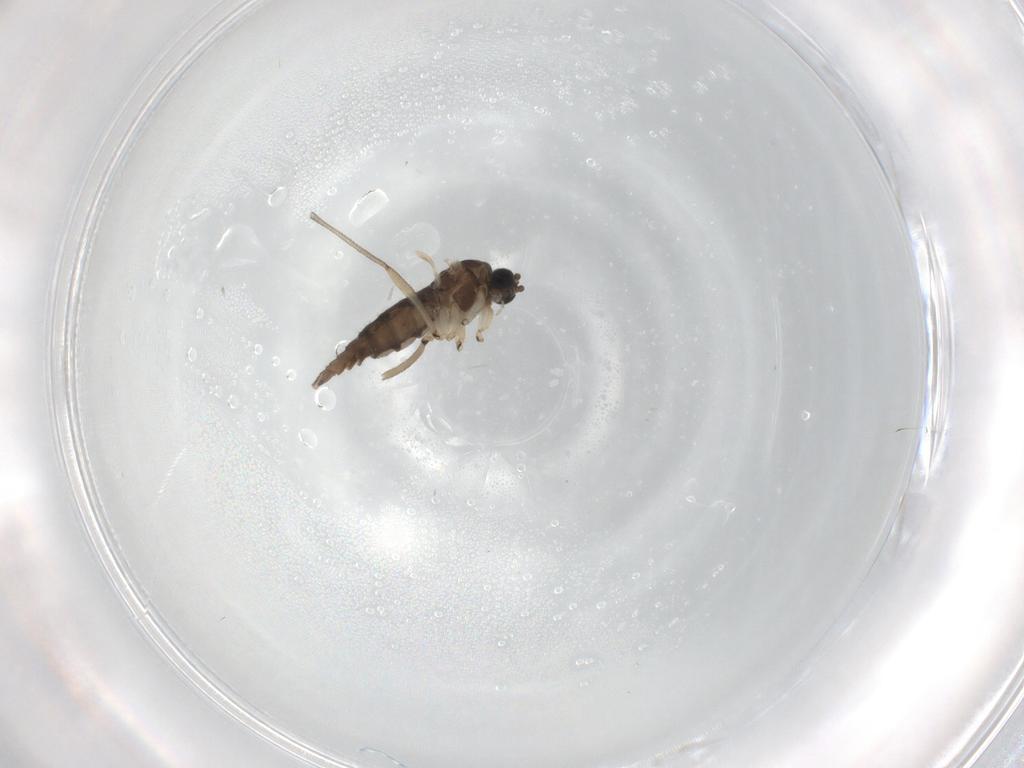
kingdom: Animalia
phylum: Arthropoda
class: Insecta
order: Diptera
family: Sciaridae
